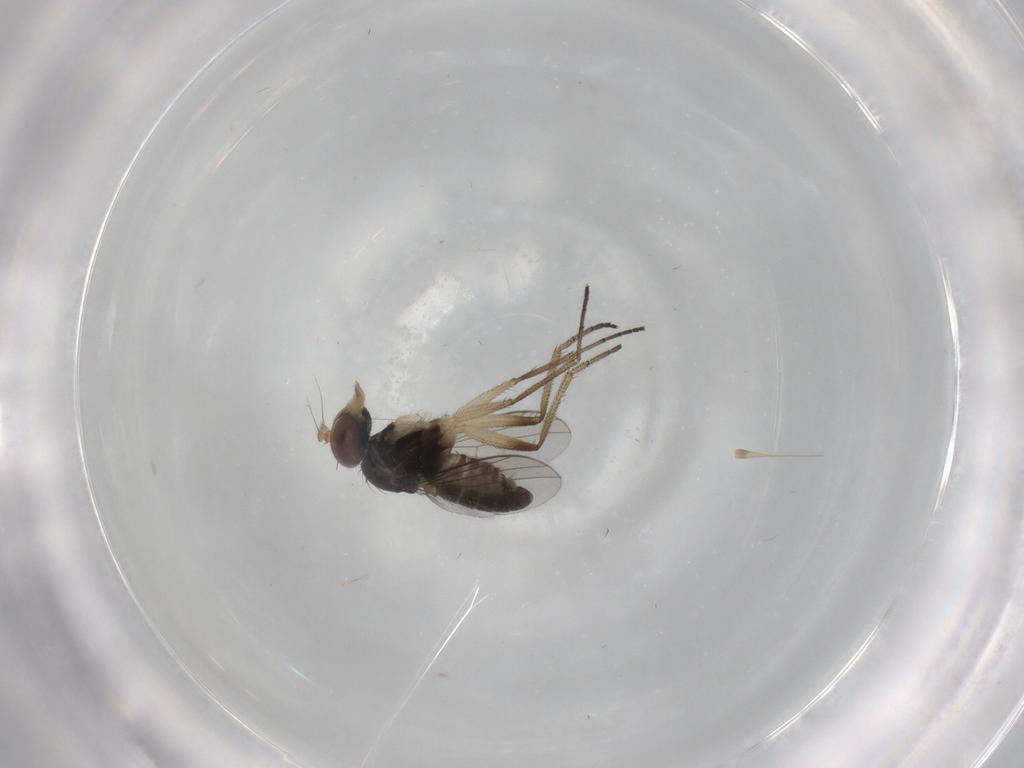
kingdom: Animalia
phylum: Arthropoda
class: Insecta
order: Diptera
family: Dolichopodidae
